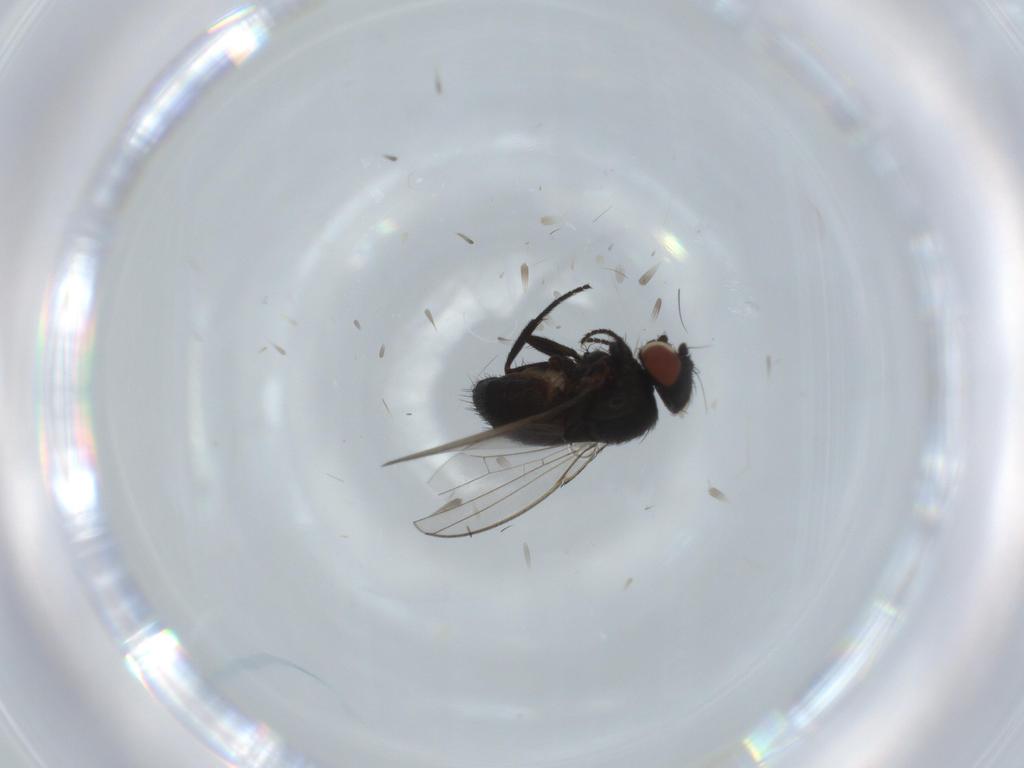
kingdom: Animalia
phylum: Arthropoda
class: Insecta
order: Diptera
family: Milichiidae
